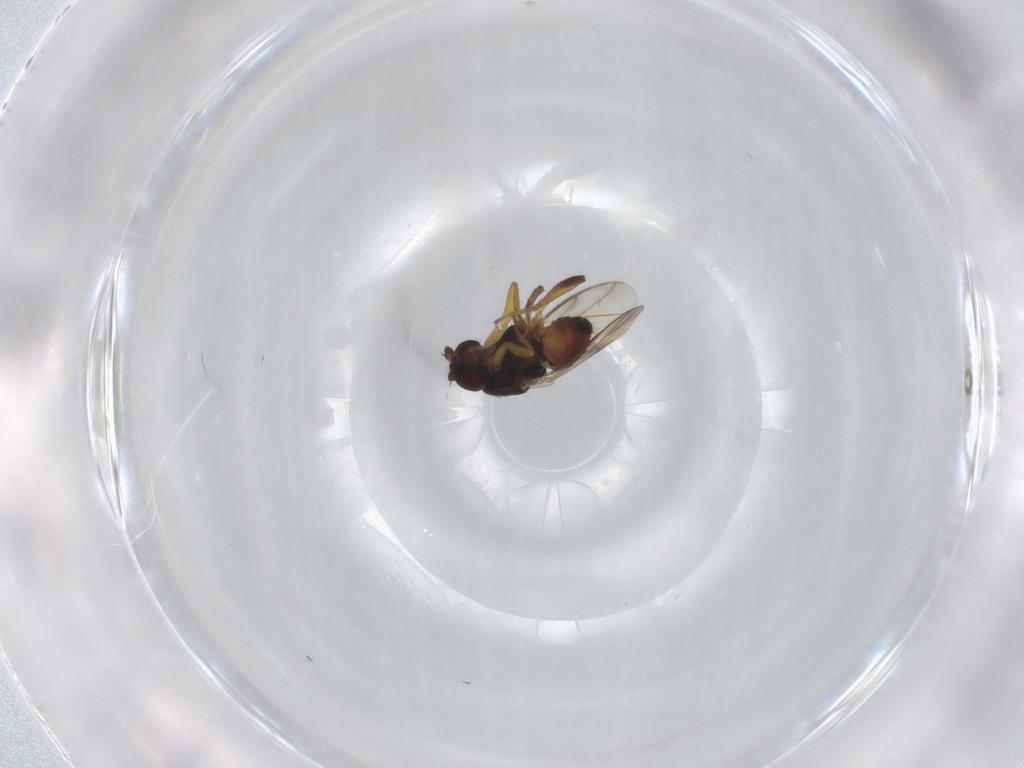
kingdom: Animalia
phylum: Arthropoda
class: Insecta
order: Diptera
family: Sphaeroceridae
